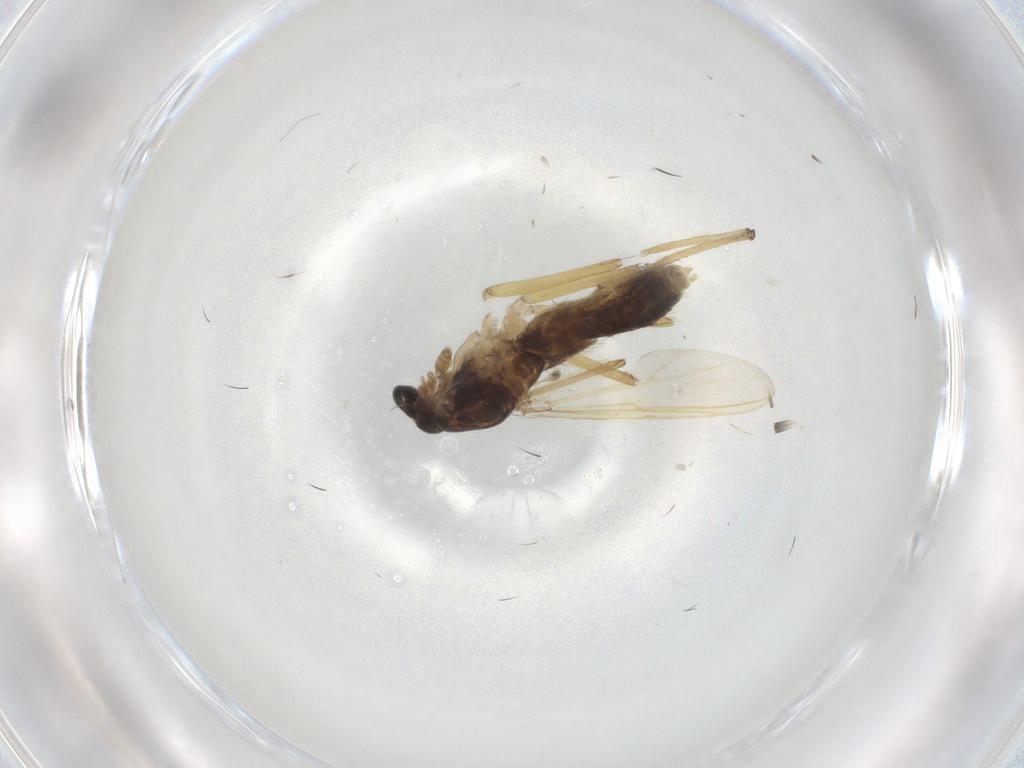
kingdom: Animalia
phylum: Arthropoda
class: Insecta
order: Diptera
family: Chironomidae
